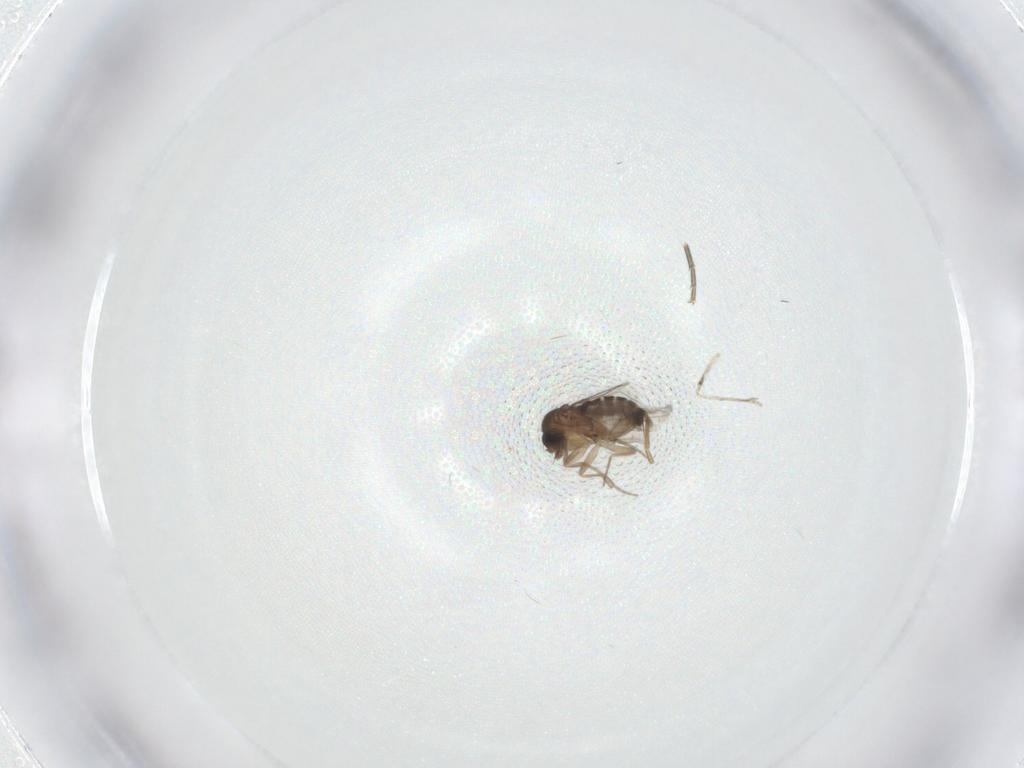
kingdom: Animalia
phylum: Arthropoda
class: Insecta
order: Diptera
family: Phoridae
